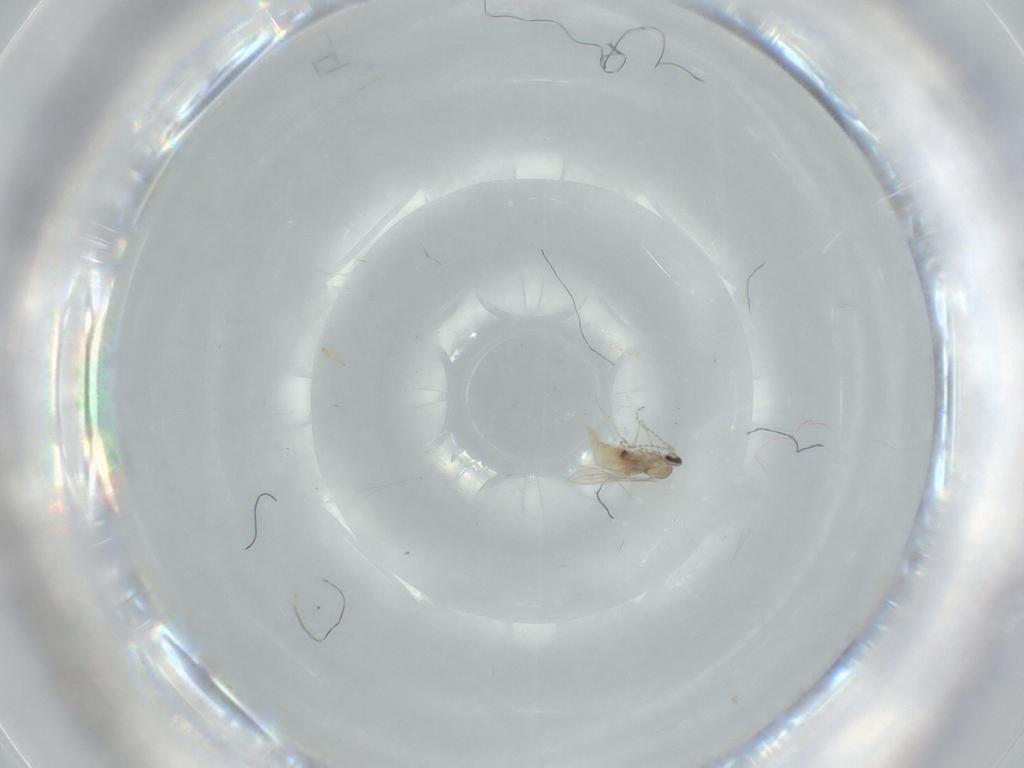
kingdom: Animalia
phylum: Arthropoda
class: Insecta
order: Diptera
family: Cecidomyiidae
